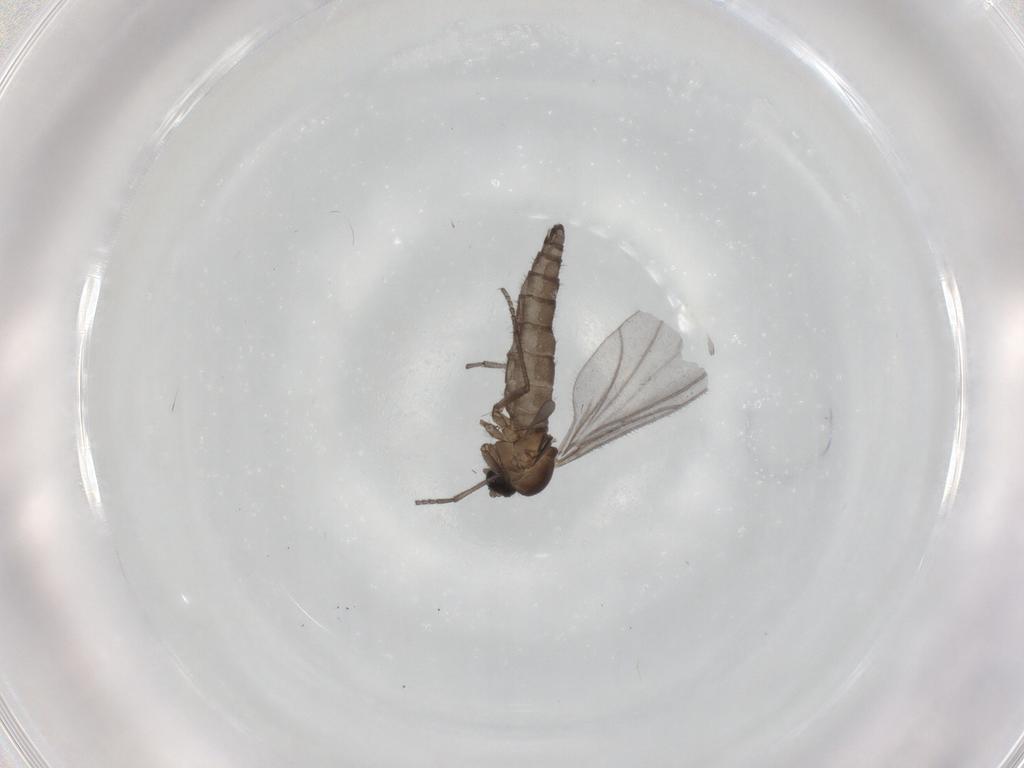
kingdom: Animalia
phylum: Arthropoda
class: Insecta
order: Diptera
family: Sciaridae
